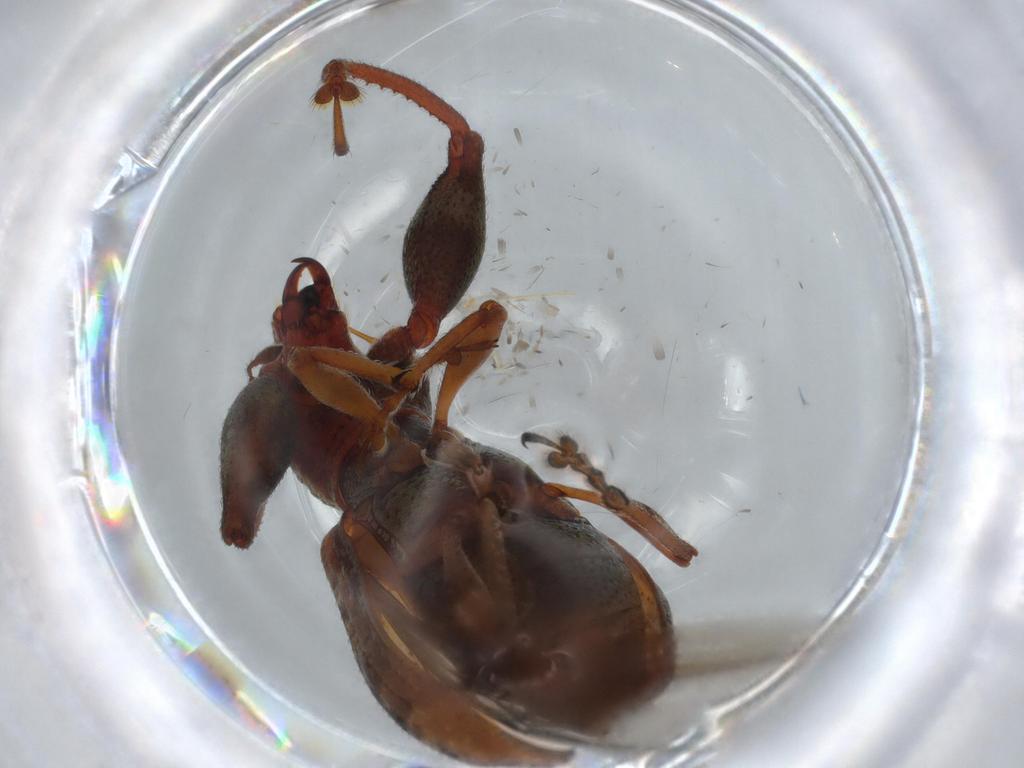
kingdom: Animalia
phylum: Arthropoda
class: Insecta
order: Coleoptera
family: Curculionidae
